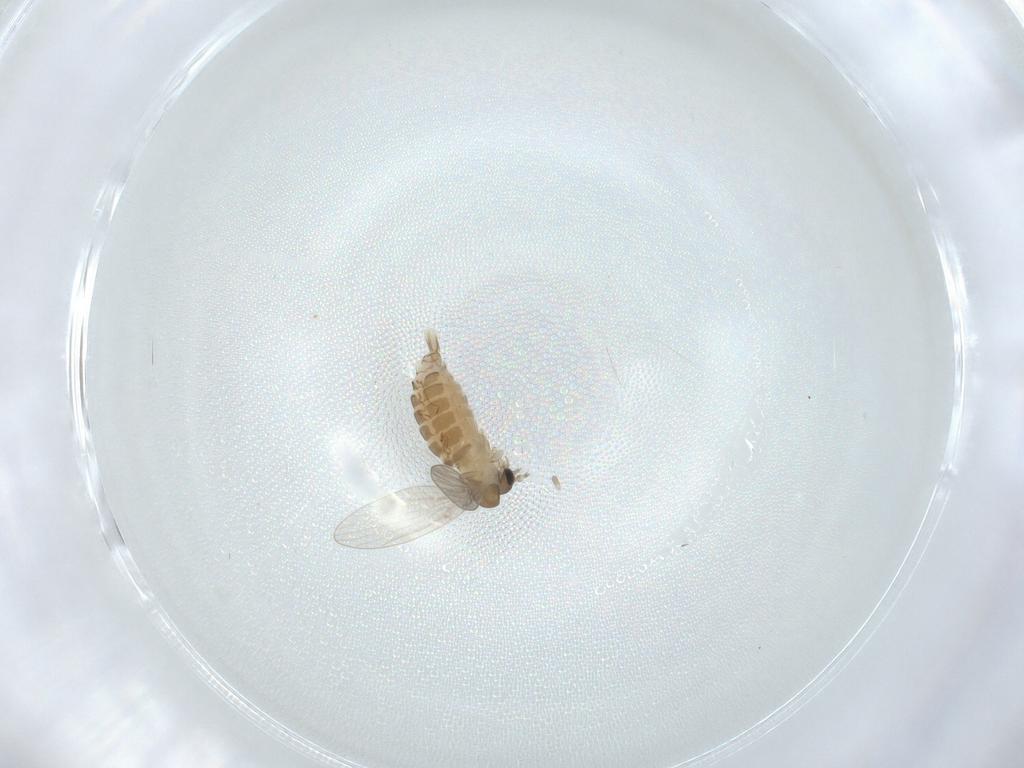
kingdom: Animalia
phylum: Arthropoda
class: Insecta
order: Diptera
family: Psychodidae
